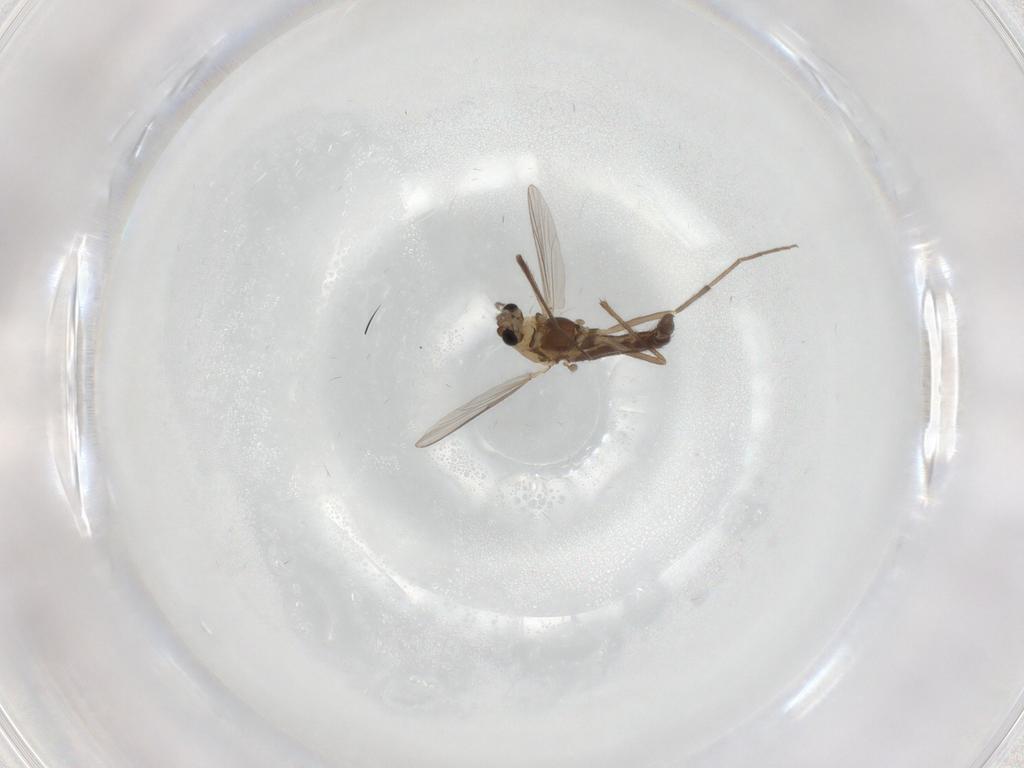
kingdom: Animalia
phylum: Arthropoda
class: Insecta
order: Diptera
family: Chironomidae
